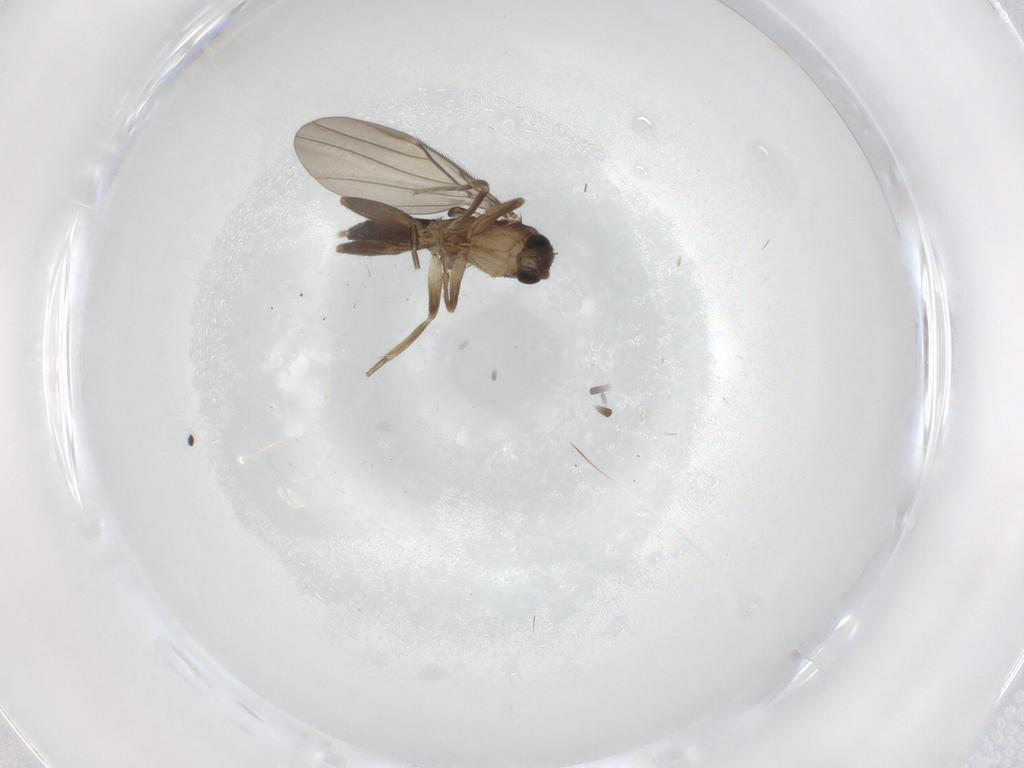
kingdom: Animalia
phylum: Arthropoda
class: Insecta
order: Diptera
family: Phoridae
